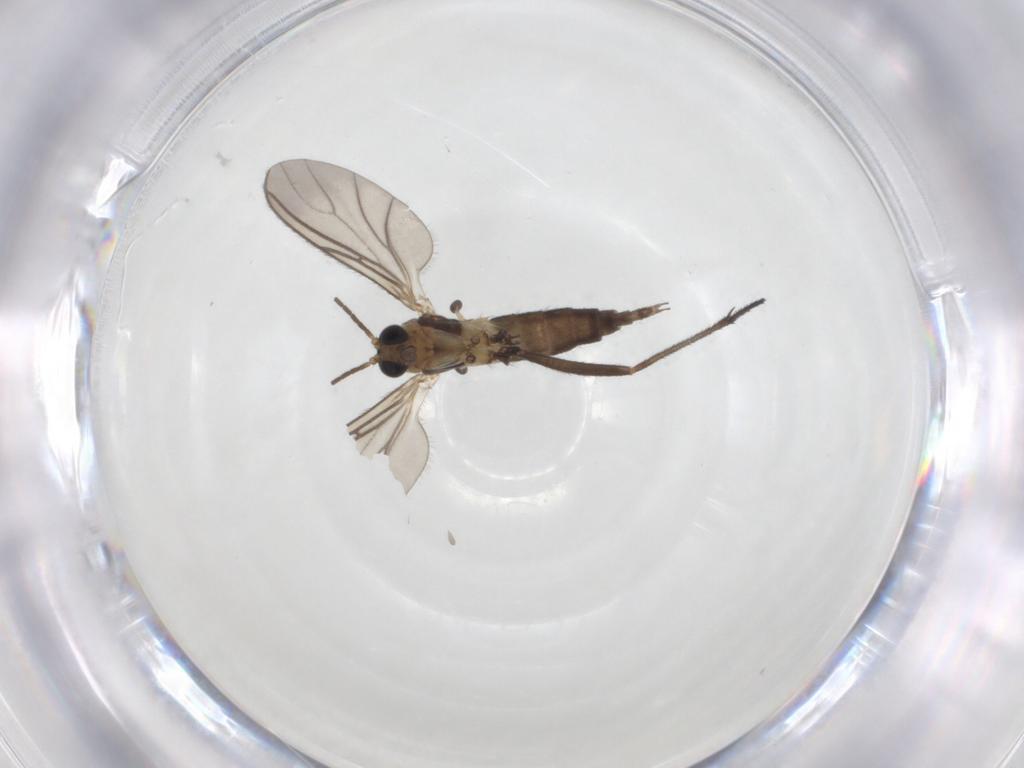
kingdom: Animalia
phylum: Arthropoda
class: Insecta
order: Diptera
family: Sciaridae
